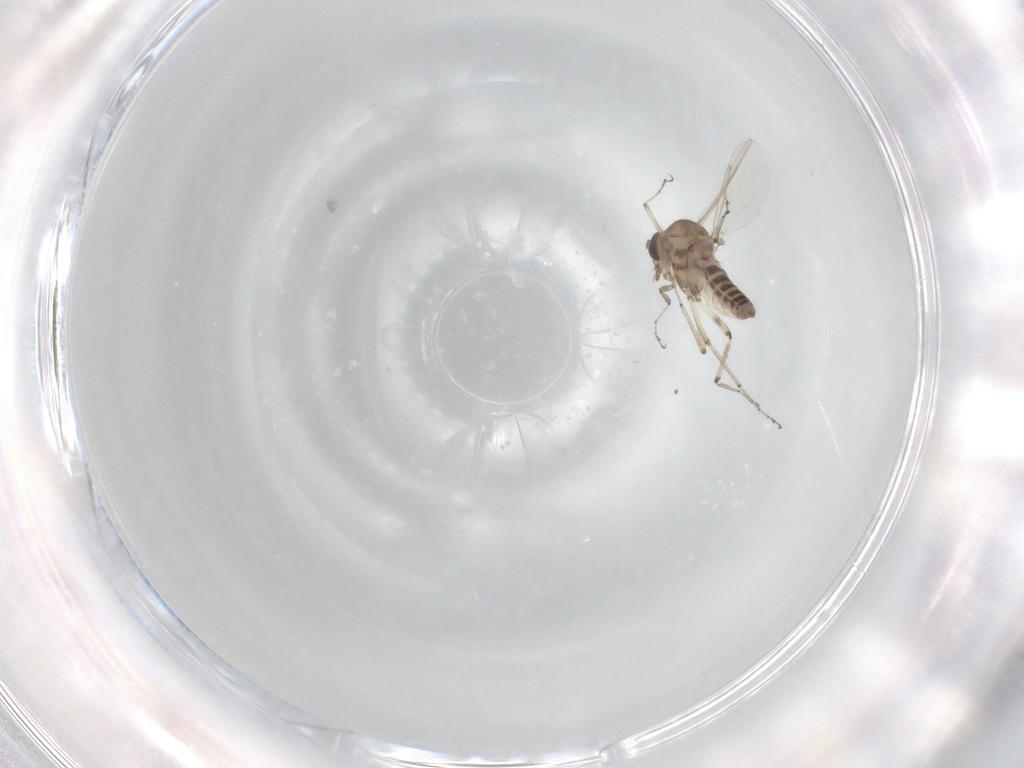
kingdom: Animalia
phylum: Arthropoda
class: Insecta
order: Diptera
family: Ceratopogonidae
